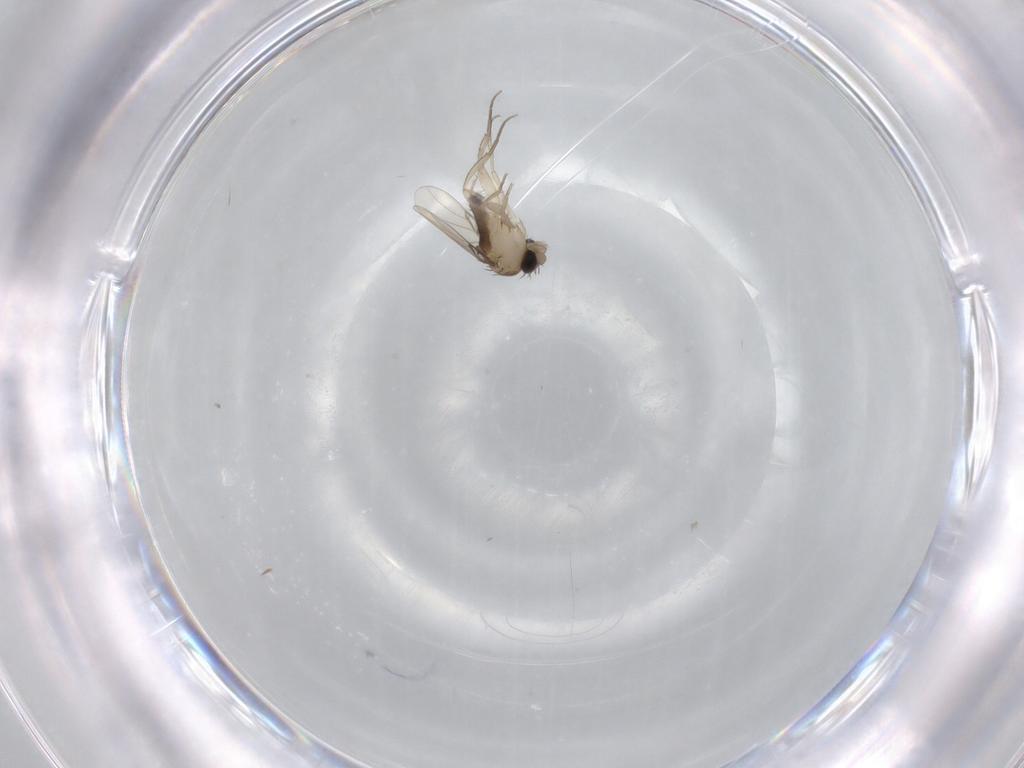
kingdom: Animalia
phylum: Arthropoda
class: Insecta
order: Diptera
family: Phoridae
